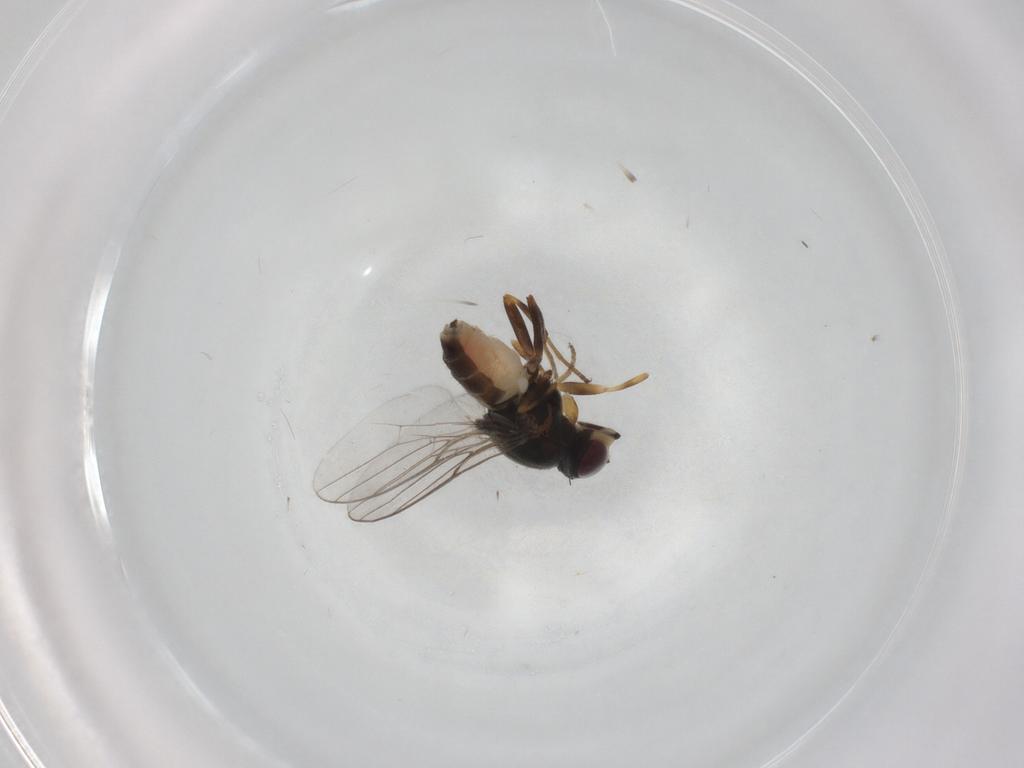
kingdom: Animalia
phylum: Arthropoda
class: Insecta
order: Diptera
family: Chloropidae
